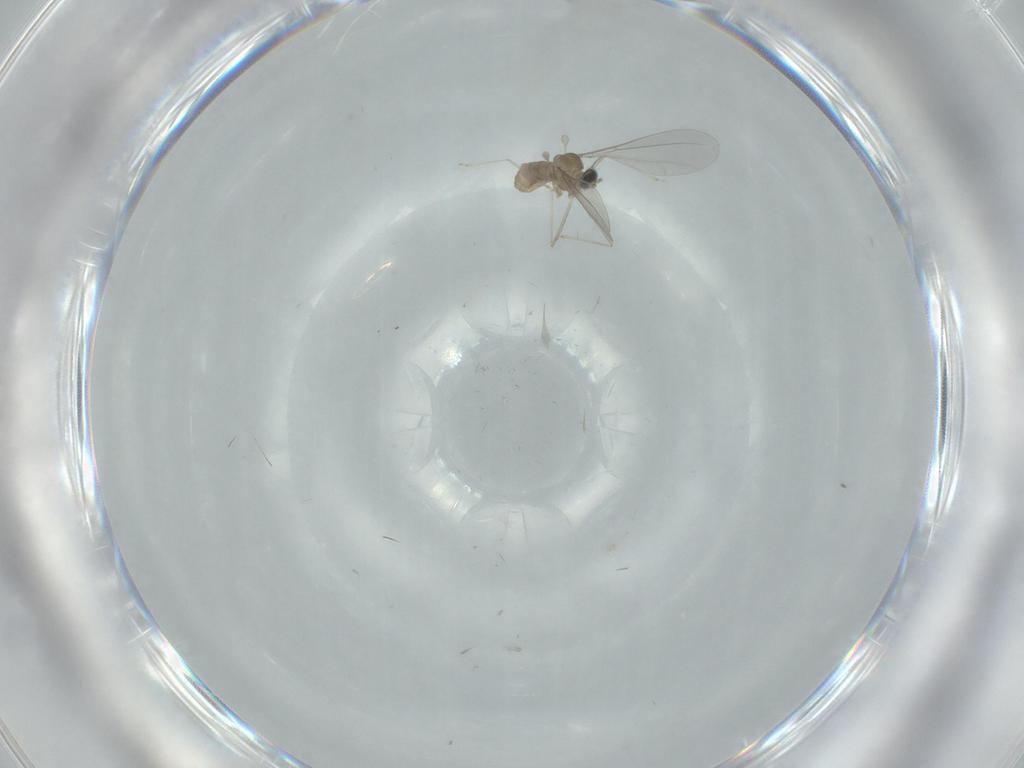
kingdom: Animalia
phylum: Arthropoda
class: Insecta
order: Diptera
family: Cecidomyiidae
